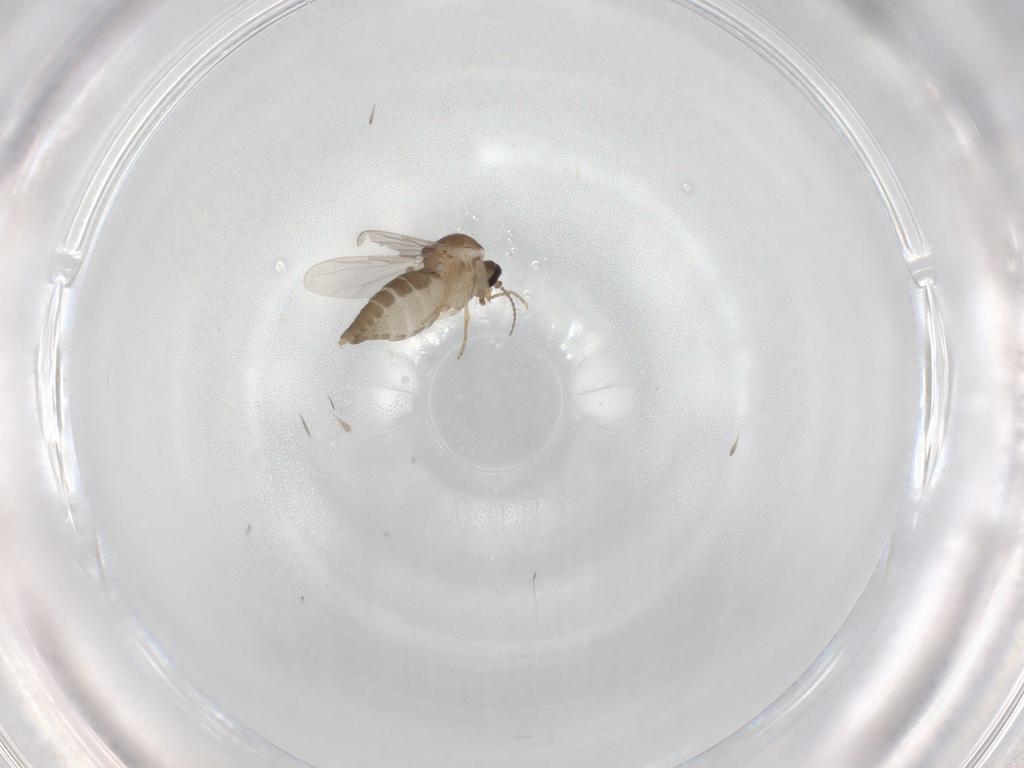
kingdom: Animalia
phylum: Arthropoda
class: Insecta
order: Diptera
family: Ceratopogonidae
